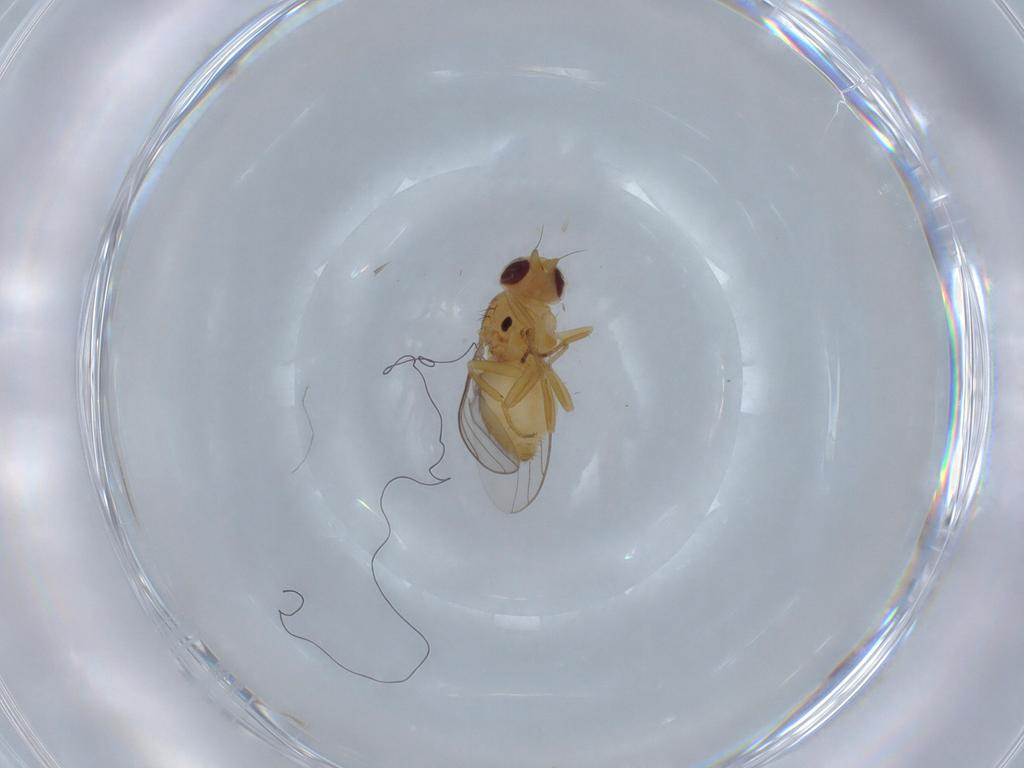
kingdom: Animalia
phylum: Arthropoda
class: Insecta
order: Diptera
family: Chloropidae
